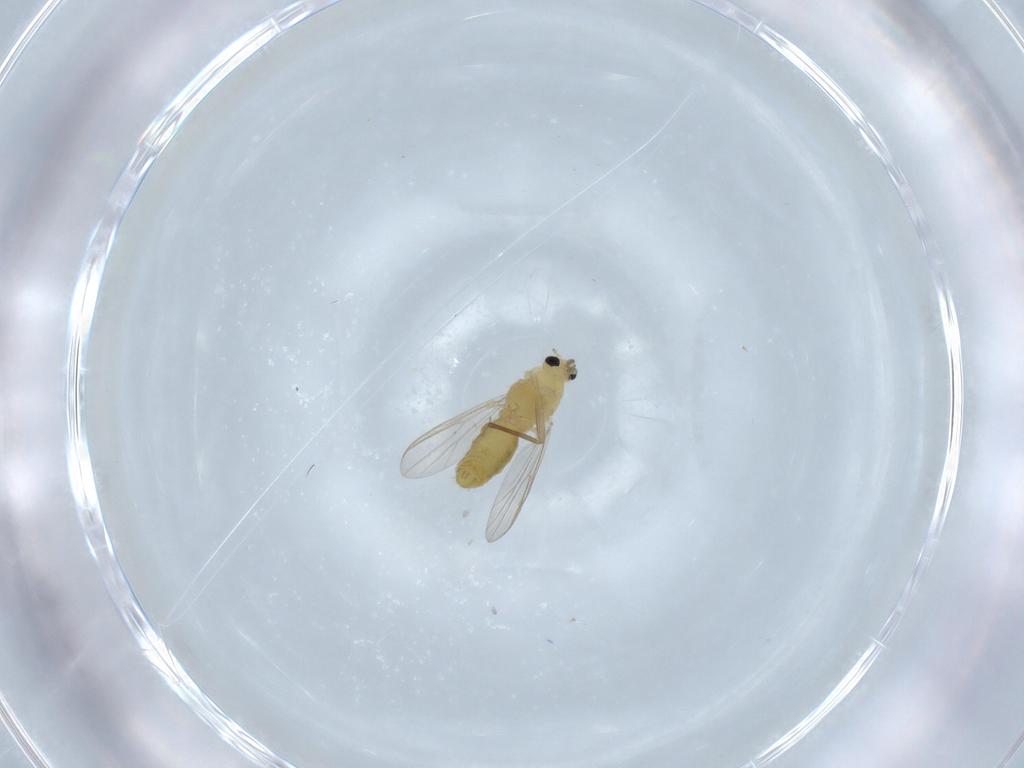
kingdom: Animalia
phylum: Arthropoda
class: Insecta
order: Diptera
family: Chironomidae
